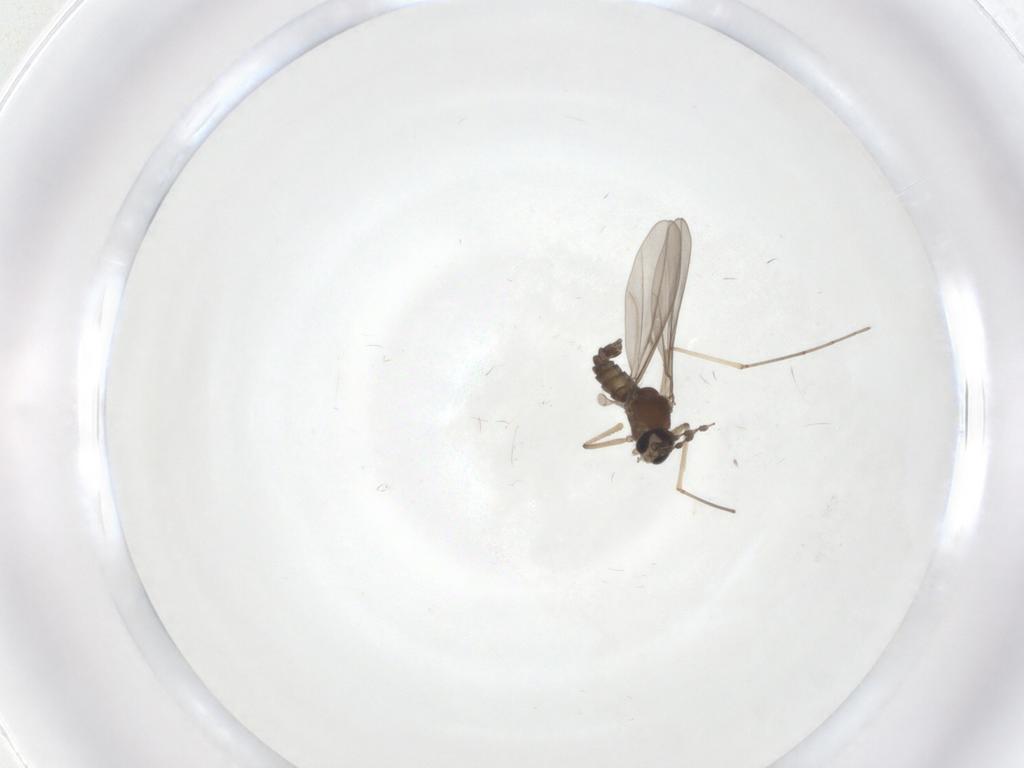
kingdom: Animalia
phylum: Arthropoda
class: Insecta
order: Diptera
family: Cecidomyiidae
